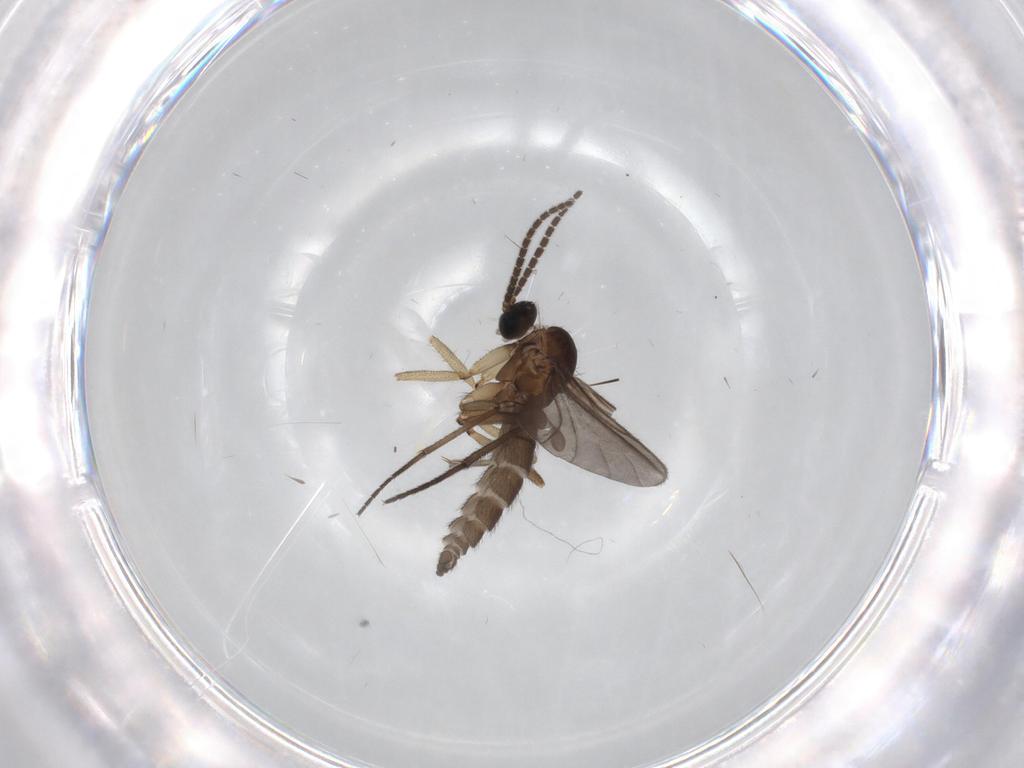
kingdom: Animalia
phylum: Arthropoda
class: Insecta
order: Diptera
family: Sciaridae
